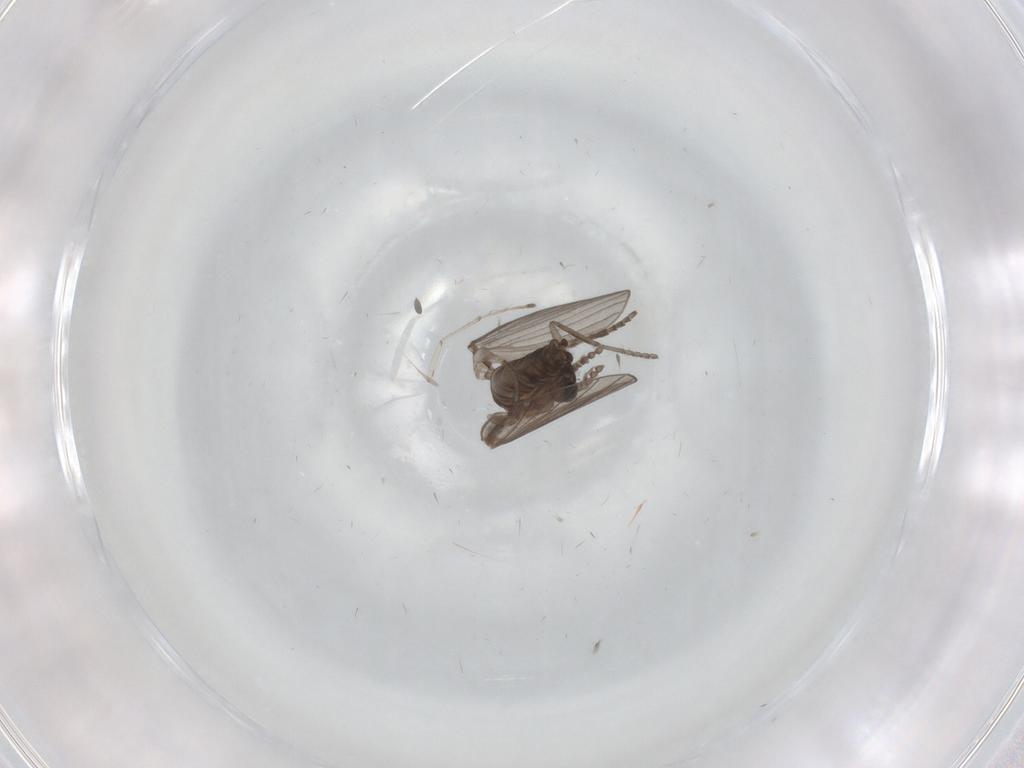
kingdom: Animalia
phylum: Arthropoda
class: Insecta
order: Diptera
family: Psychodidae
